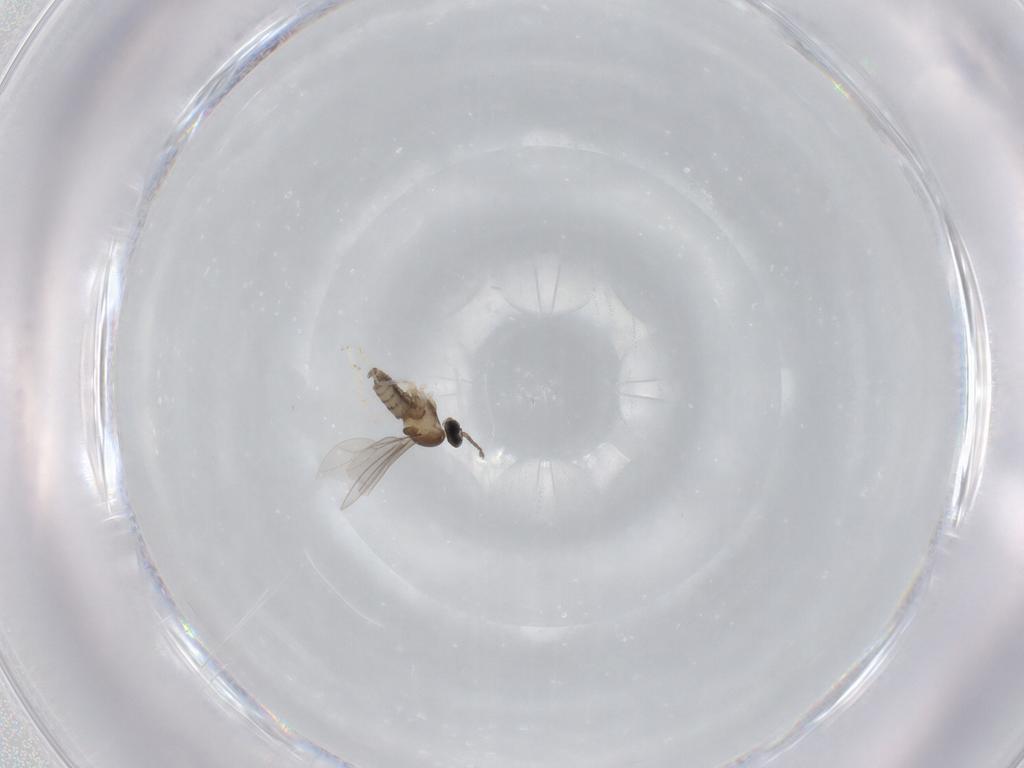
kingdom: Animalia
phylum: Arthropoda
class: Insecta
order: Diptera
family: Cecidomyiidae
